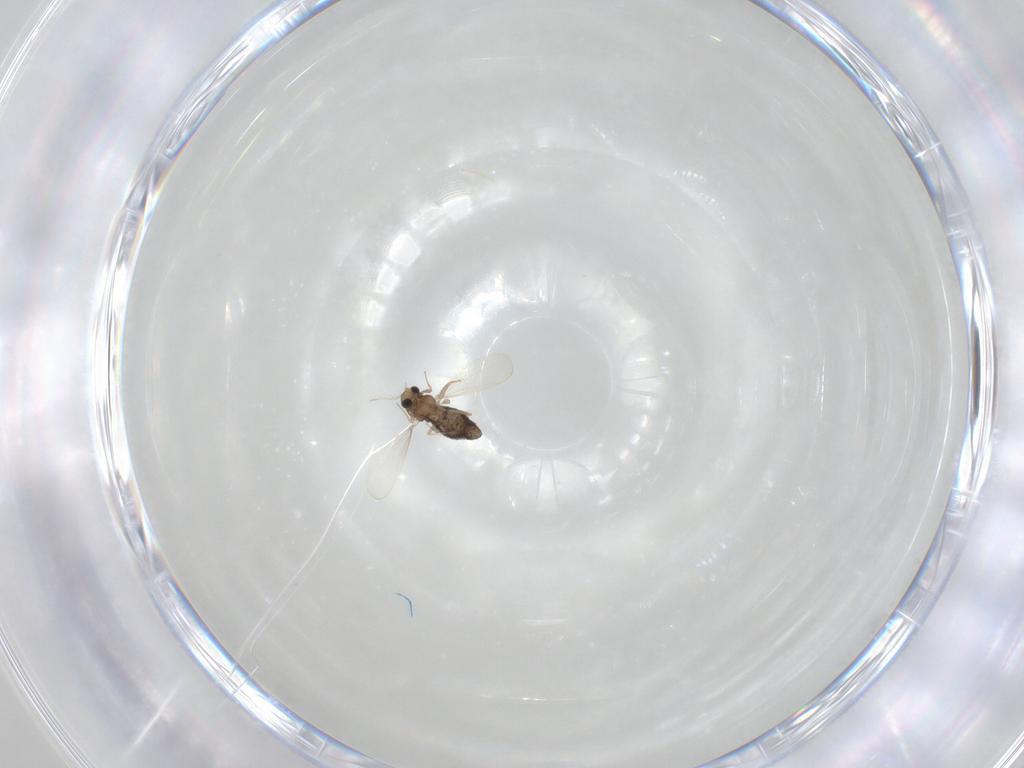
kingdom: Animalia
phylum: Arthropoda
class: Insecta
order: Diptera
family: Chironomidae
